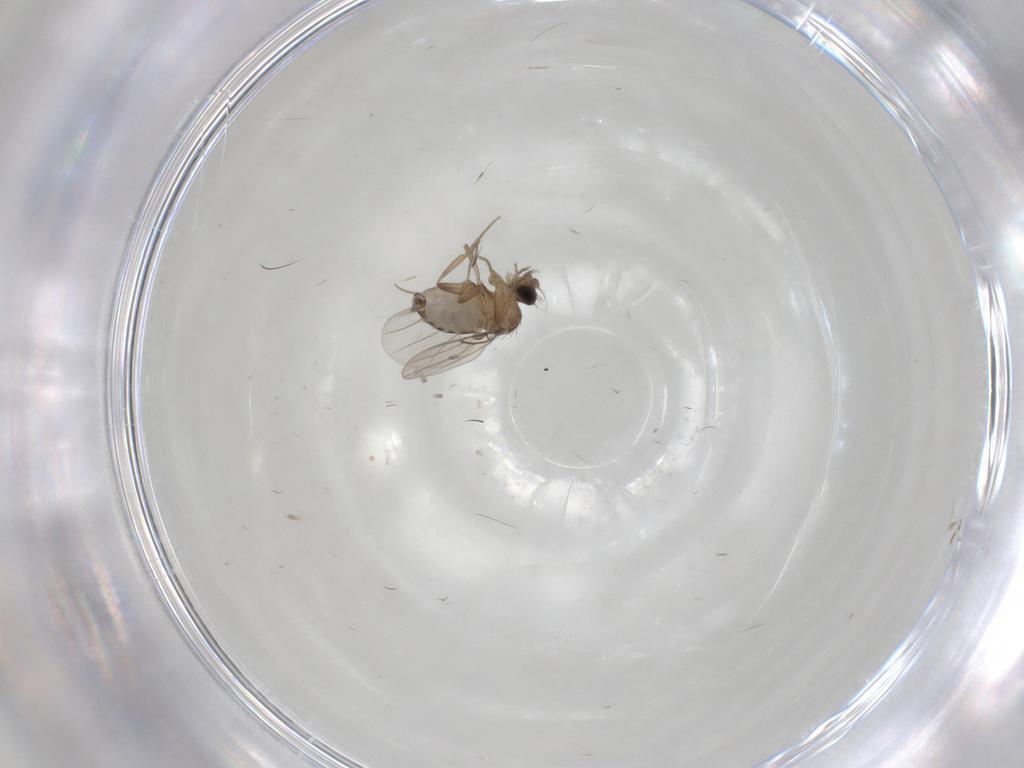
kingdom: Animalia
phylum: Arthropoda
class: Insecta
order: Diptera
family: Phoridae
